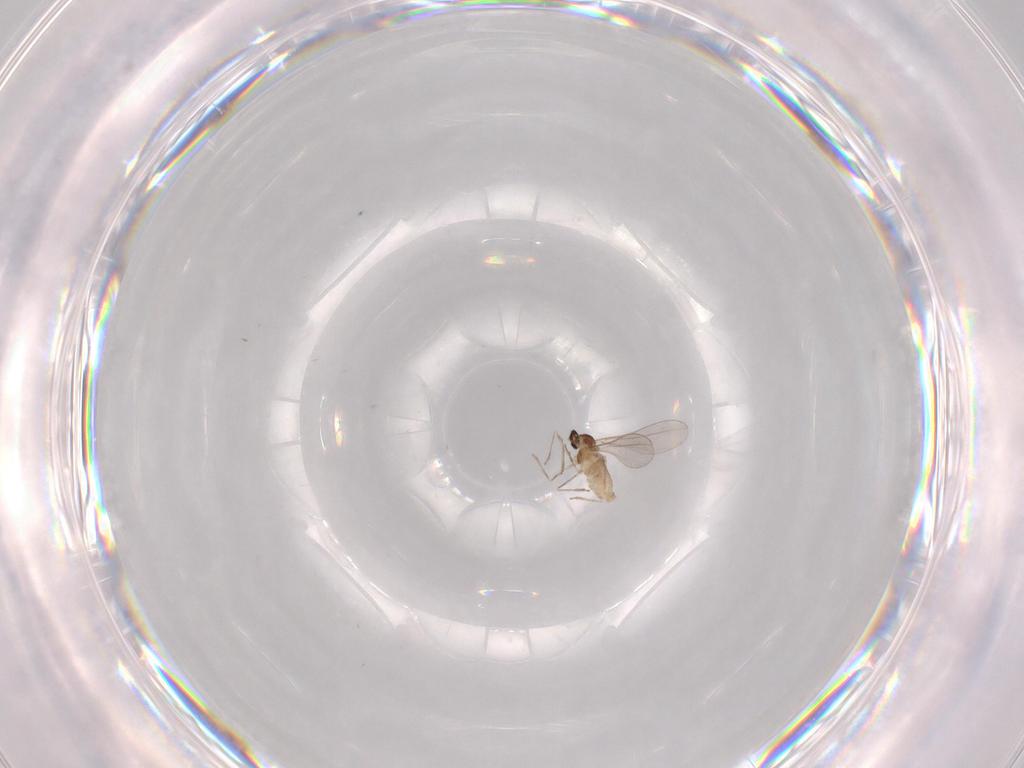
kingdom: Animalia
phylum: Arthropoda
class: Insecta
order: Diptera
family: Cecidomyiidae
